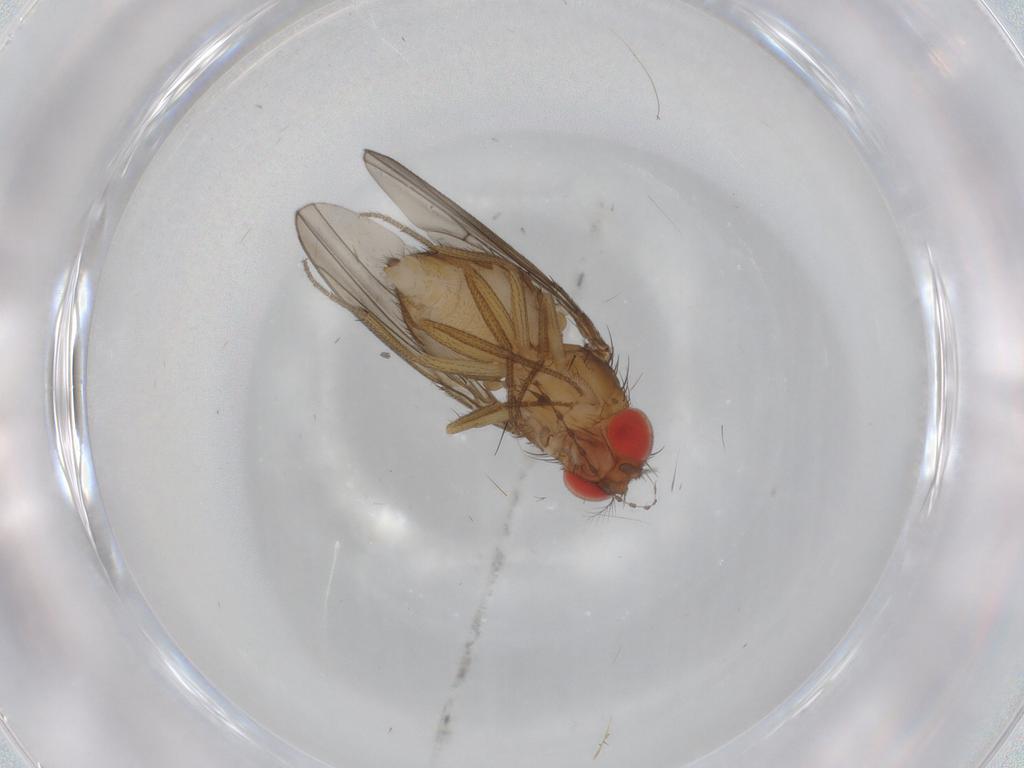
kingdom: Animalia
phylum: Arthropoda
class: Insecta
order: Diptera
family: Drosophilidae
